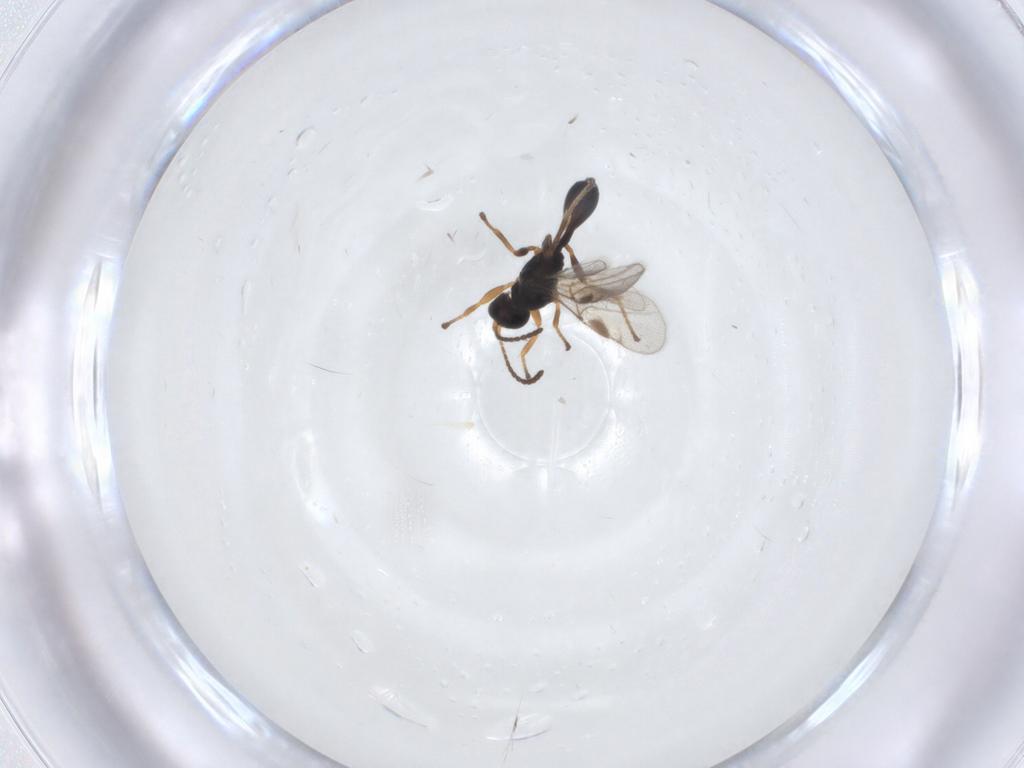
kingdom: Animalia
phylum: Arthropoda
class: Insecta
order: Hymenoptera
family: Braconidae
